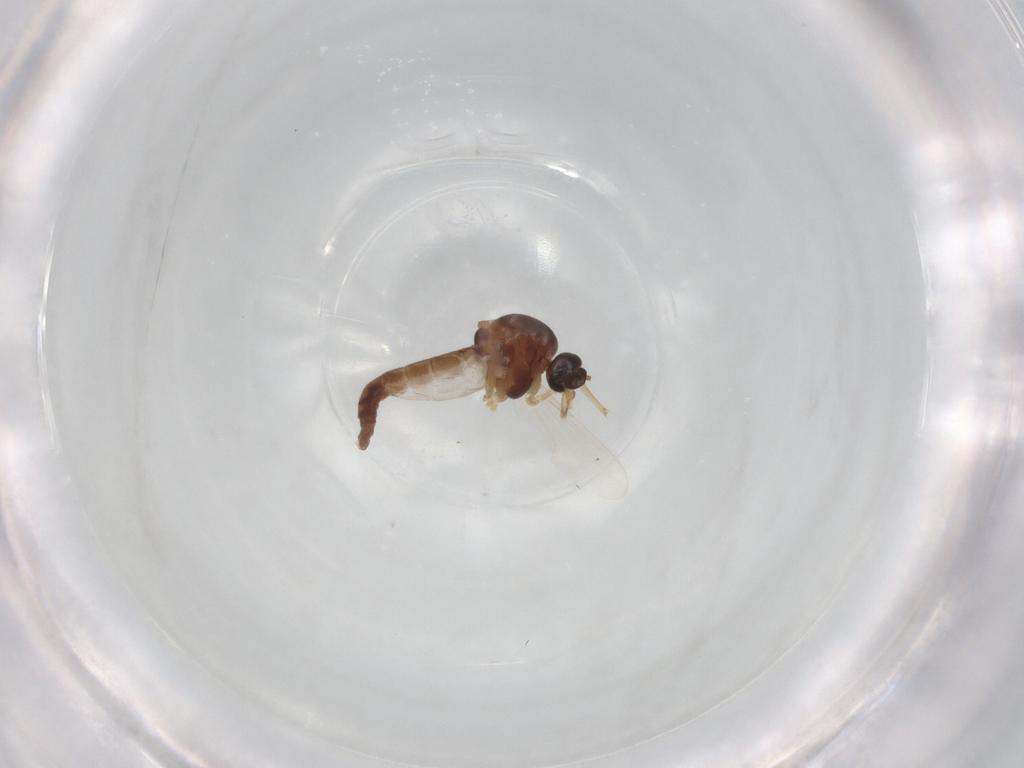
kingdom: Animalia
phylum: Arthropoda
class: Insecta
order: Diptera
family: Ceratopogonidae
